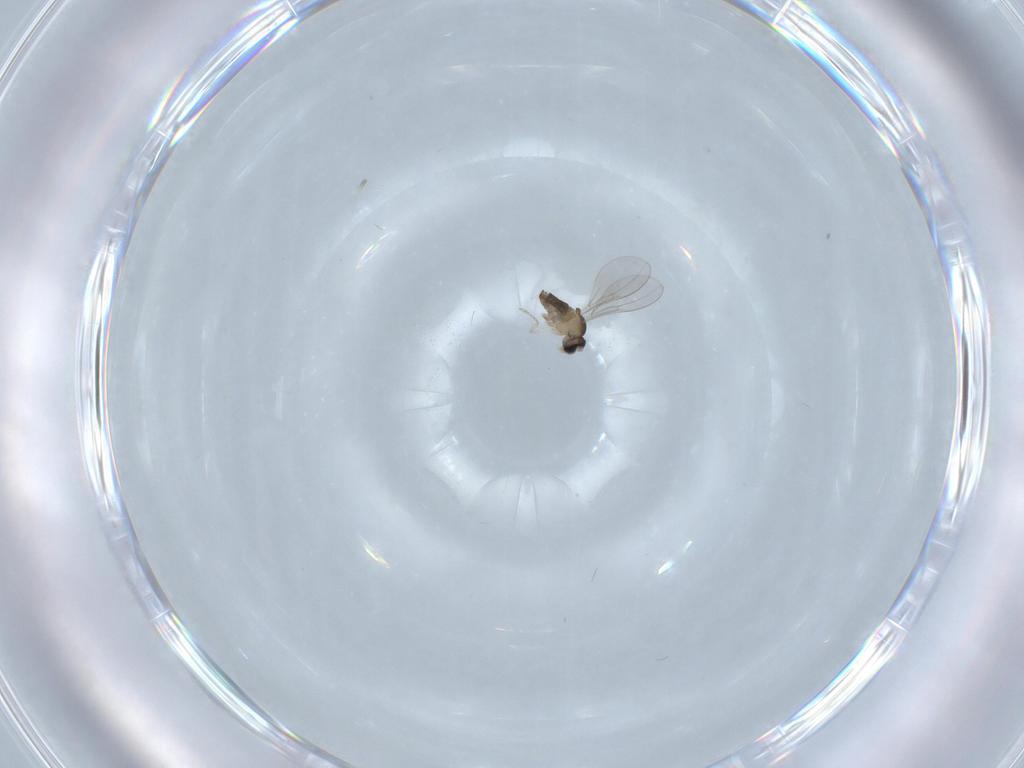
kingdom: Animalia
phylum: Arthropoda
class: Insecta
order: Diptera
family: Cecidomyiidae
